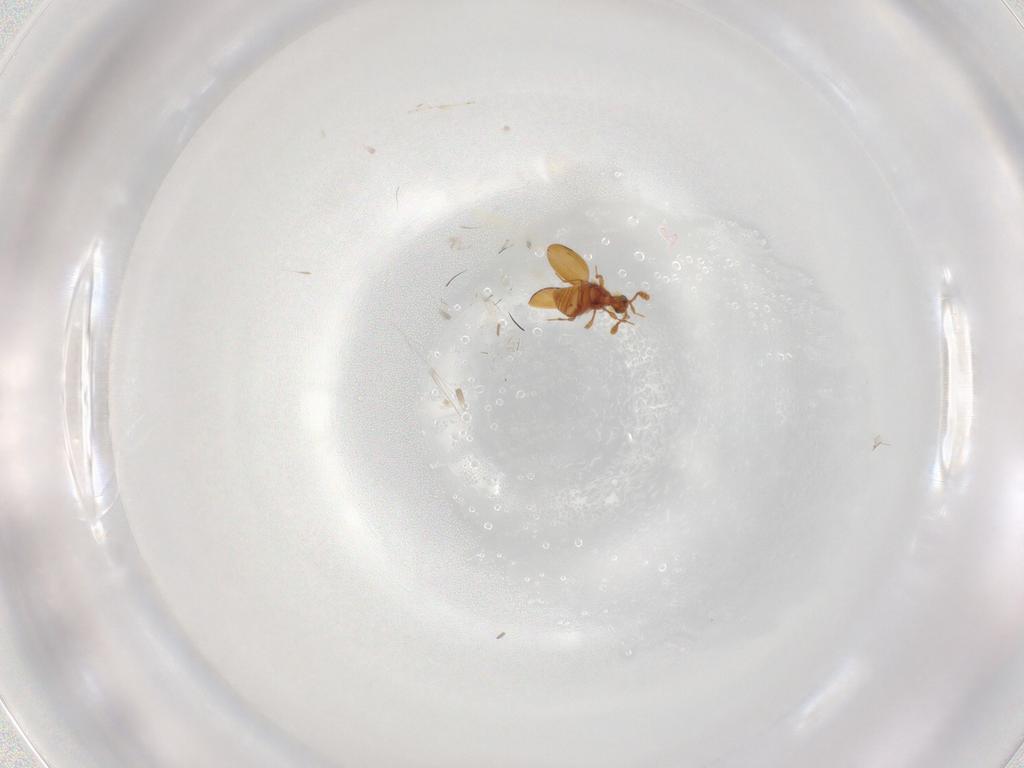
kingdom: Animalia
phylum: Arthropoda
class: Insecta
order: Coleoptera
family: Staphylinidae
